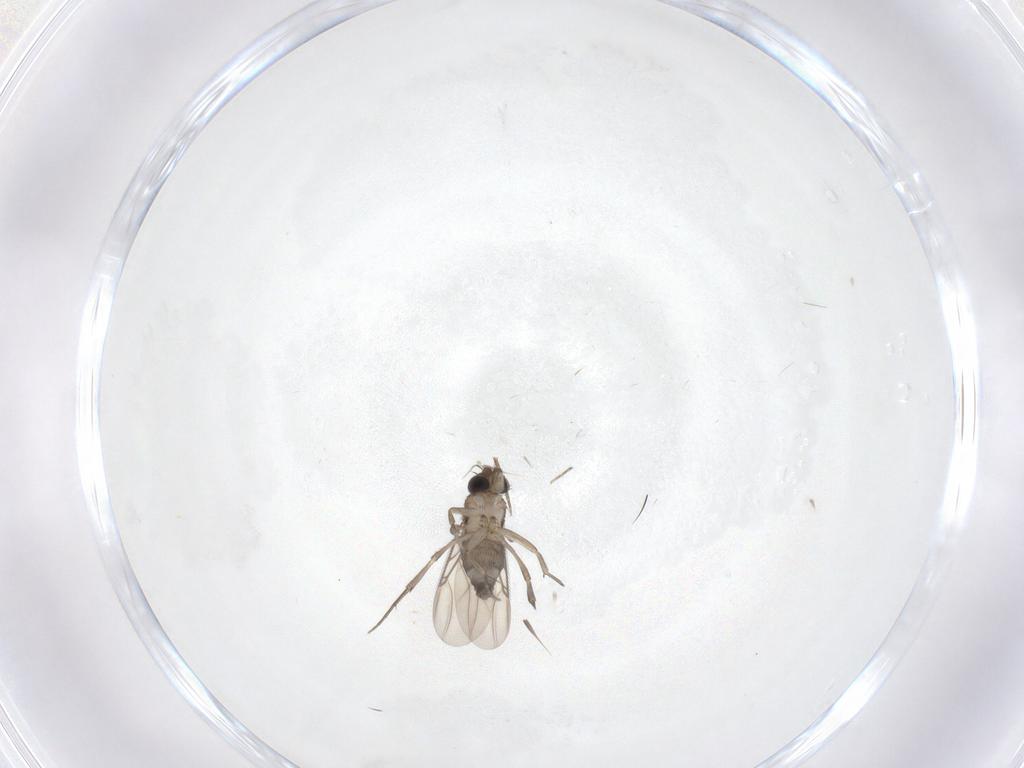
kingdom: Animalia
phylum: Arthropoda
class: Insecta
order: Diptera
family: Phoridae
